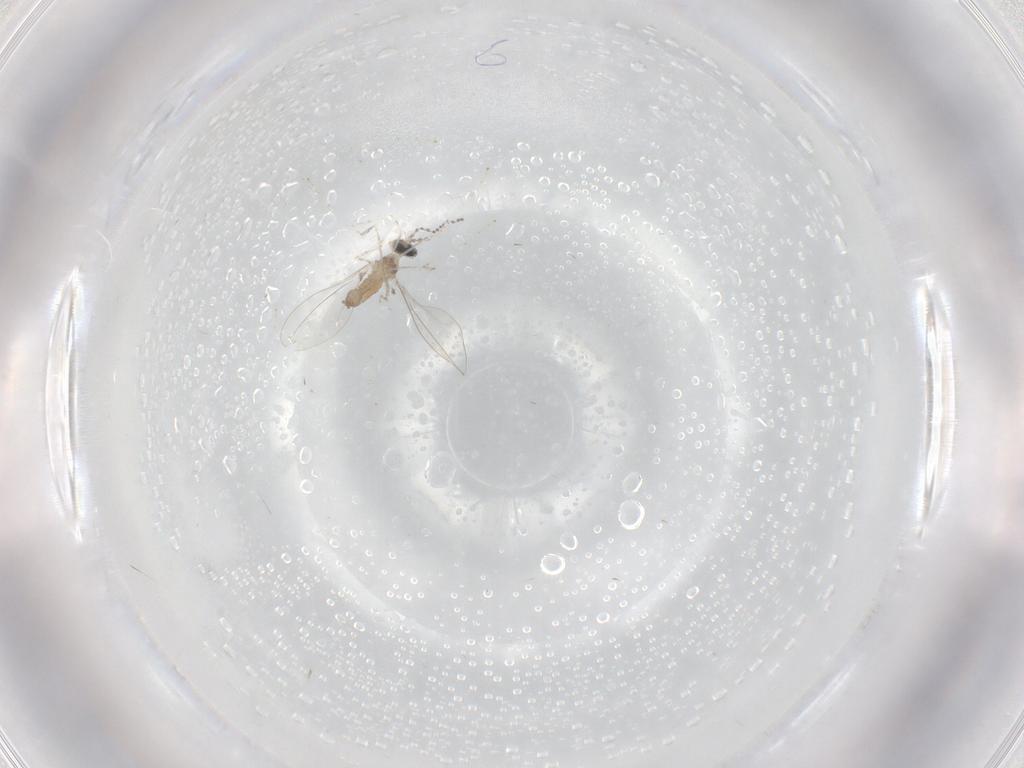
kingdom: Animalia
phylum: Arthropoda
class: Insecta
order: Diptera
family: Cecidomyiidae
